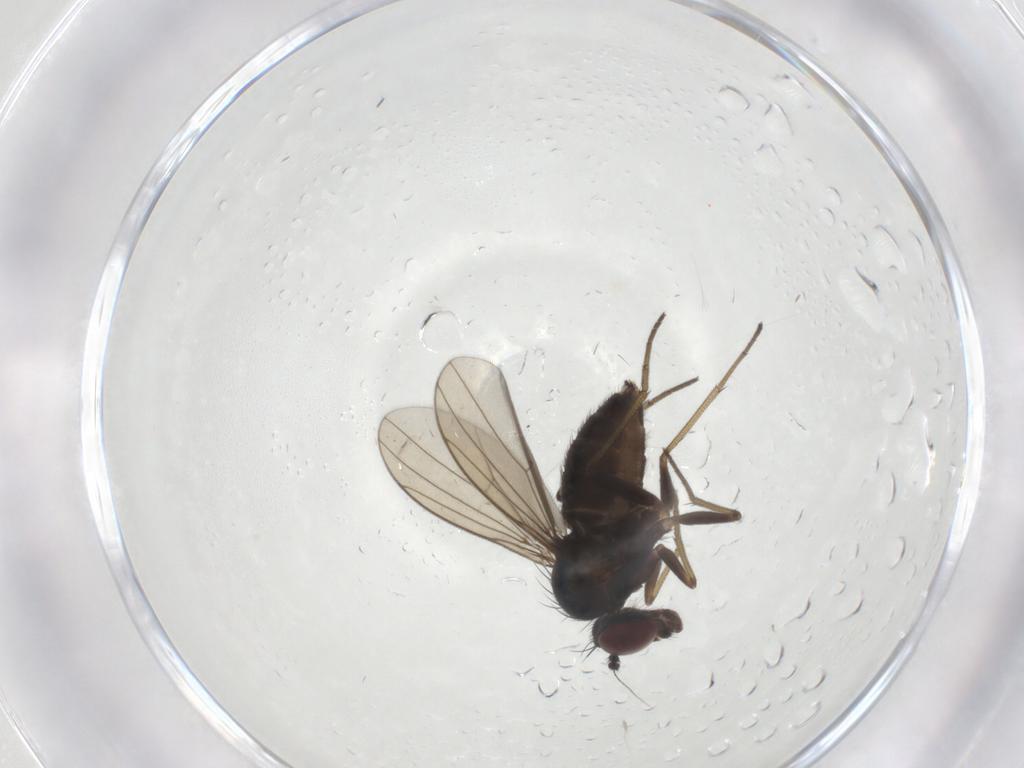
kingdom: Animalia
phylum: Arthropoda
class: Insecta
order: Diptera
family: Dolichopodidae
